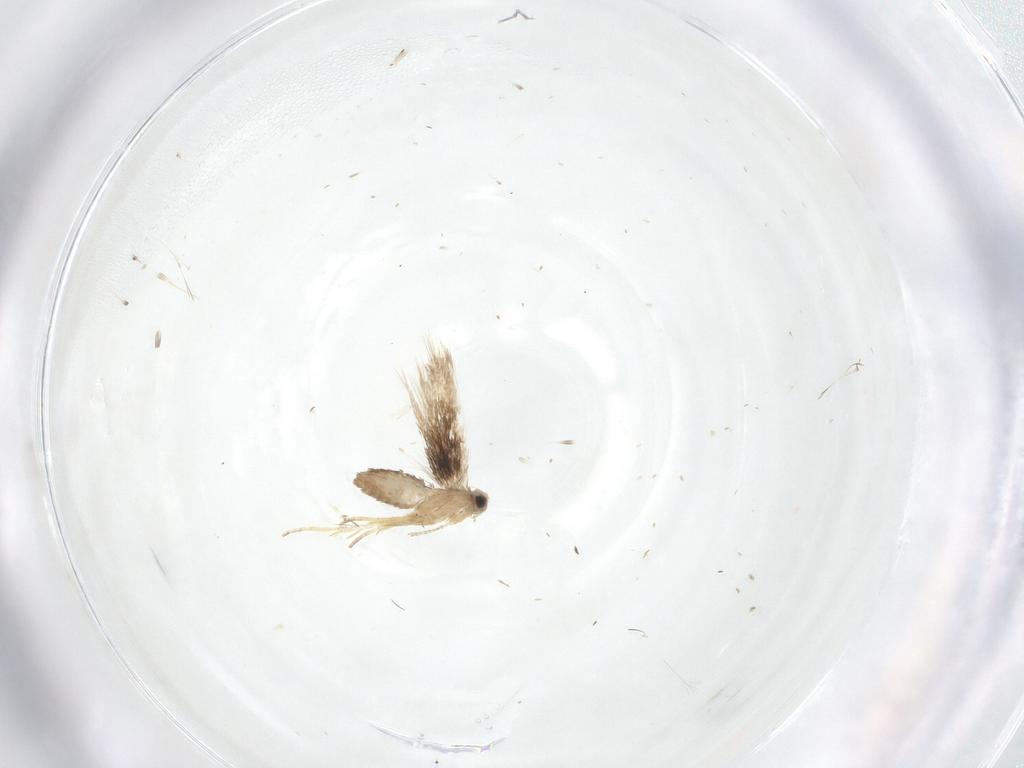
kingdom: Animalia
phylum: Arthropoda
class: Insecta
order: Lepidoptera
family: Nepticulidae
